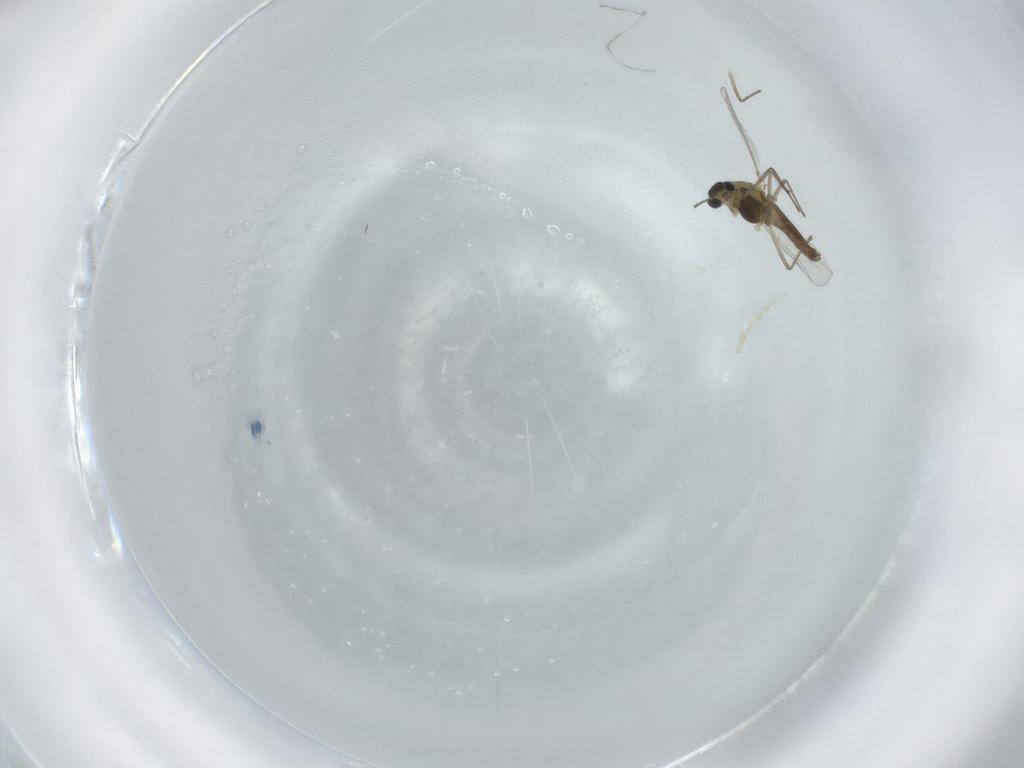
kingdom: Animalia
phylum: Arthropoda
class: Insecta
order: Diptera
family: Chironomidae
